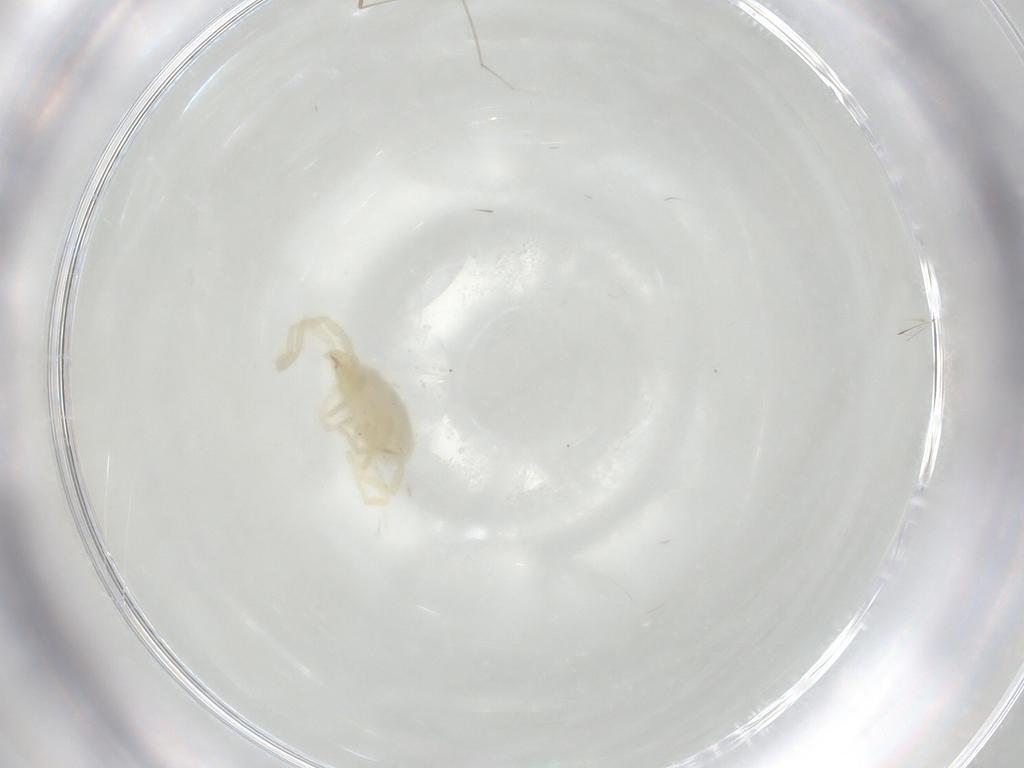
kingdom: Animalia
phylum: Arthropoda
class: Arachnida
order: Trombidiformes
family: Erythraeidae
